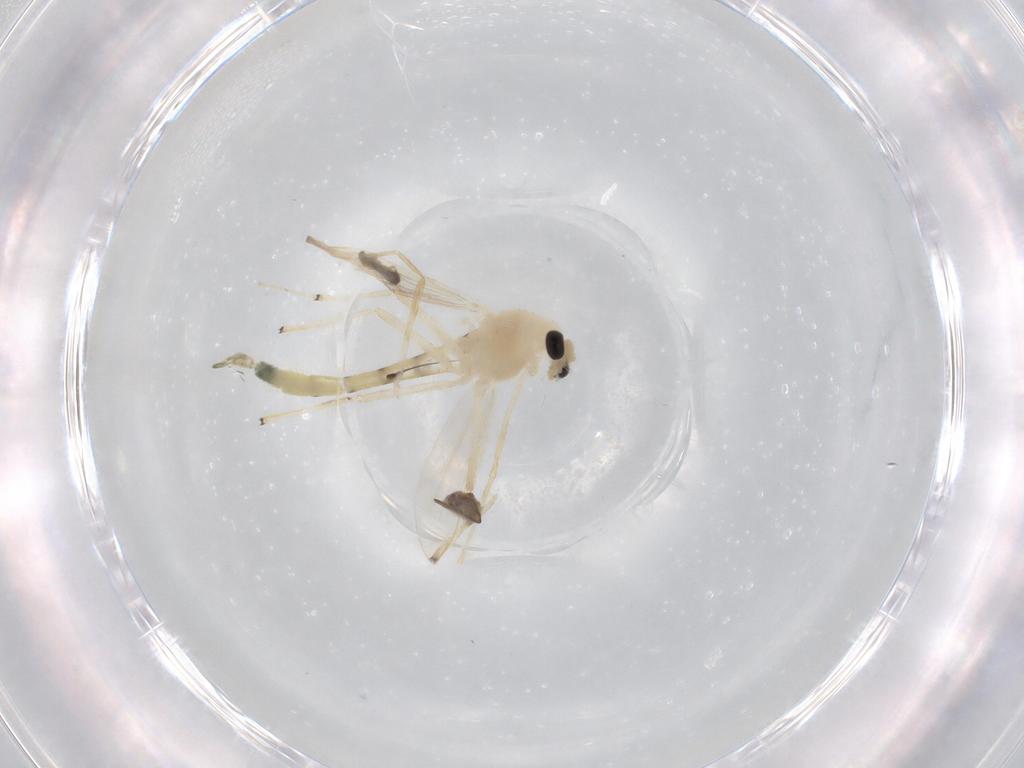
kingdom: Animalia
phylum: Arthropoda
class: Insecta
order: Diptera
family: Chironomidae
